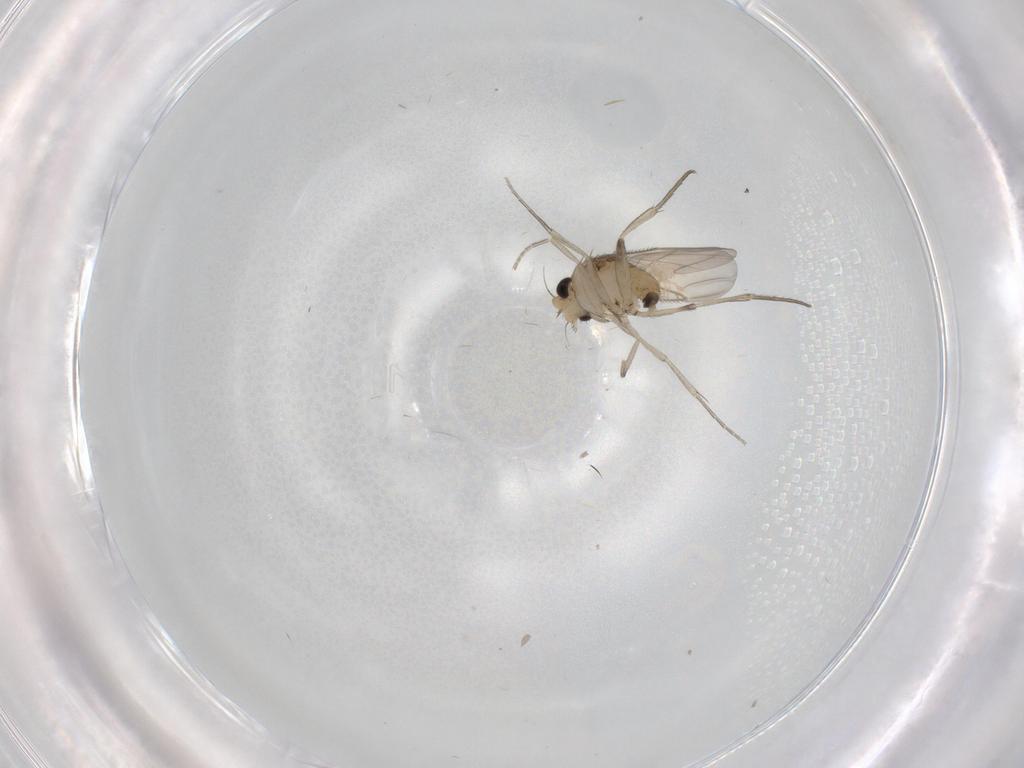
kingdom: Animalia
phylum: Arthropoda
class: Insecta
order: Diptera
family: Phoridae
